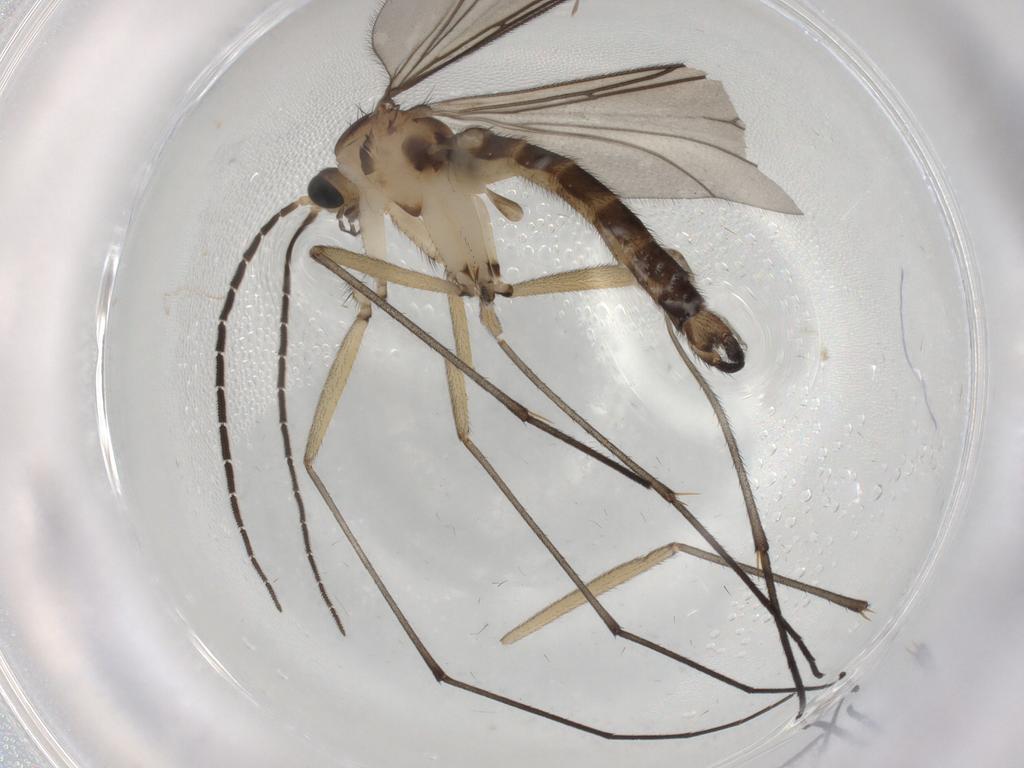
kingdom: Animalia
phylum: Arthropoda
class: Insecta
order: Diptera
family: Sciaridae
